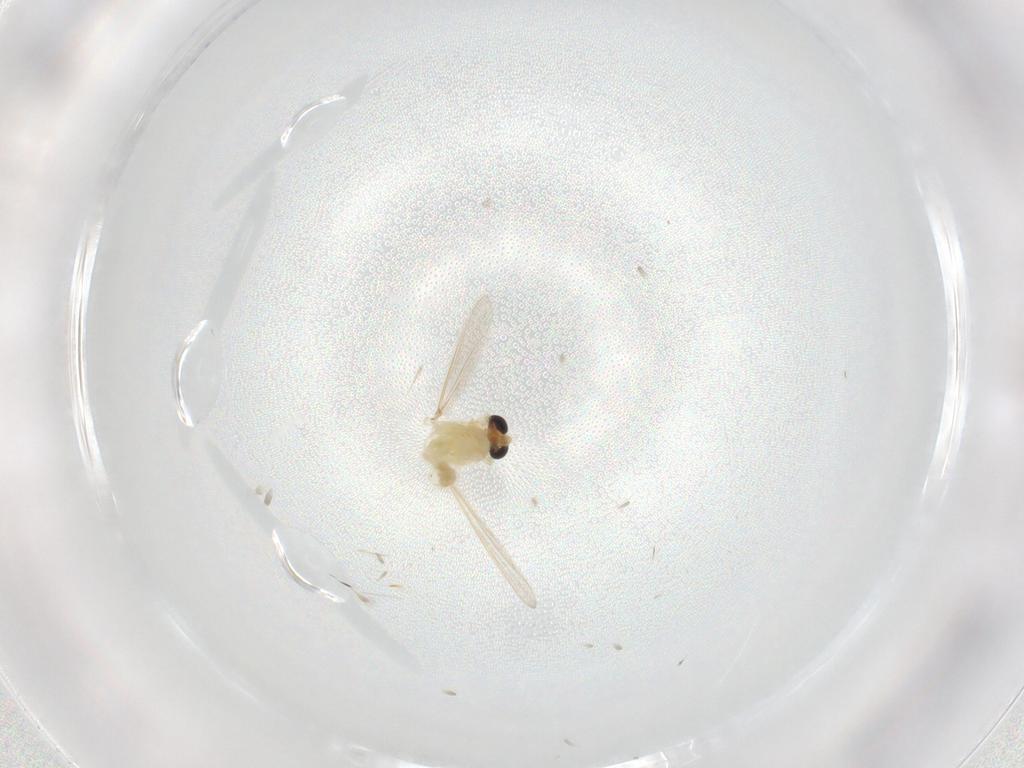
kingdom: Animalia
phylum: Arthropoda
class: Insecta
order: Diptera
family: Chironomidae
